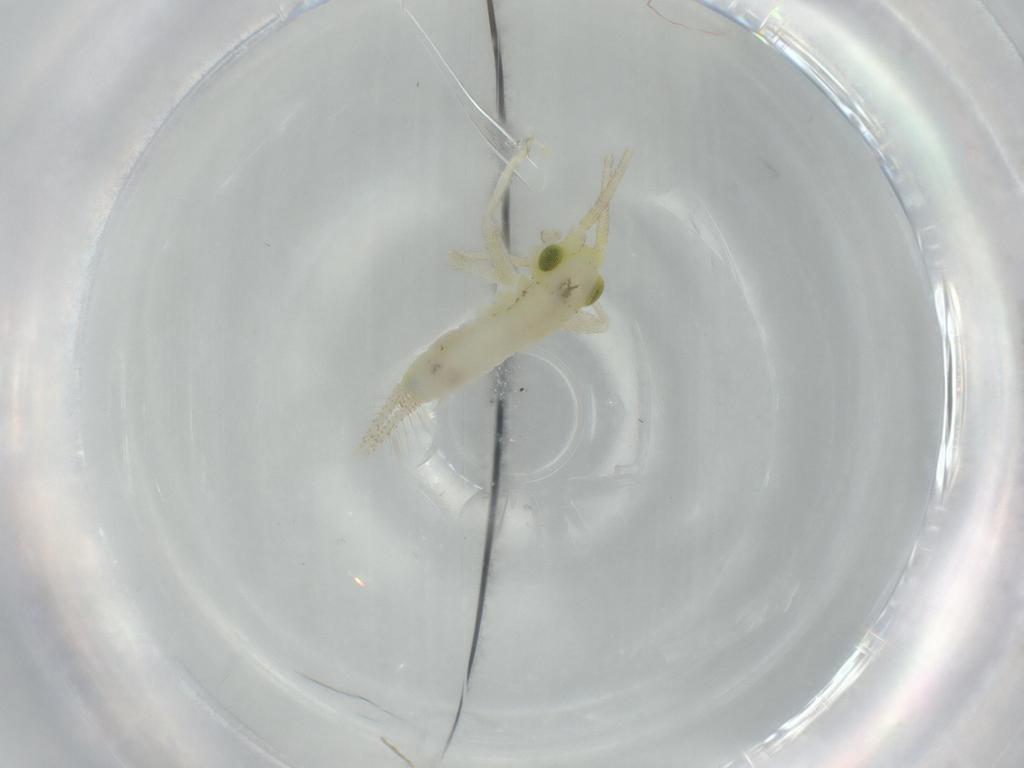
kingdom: Animalia
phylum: Arthropoda
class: Insecta
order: Orthoptera
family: Trigonidiidae
